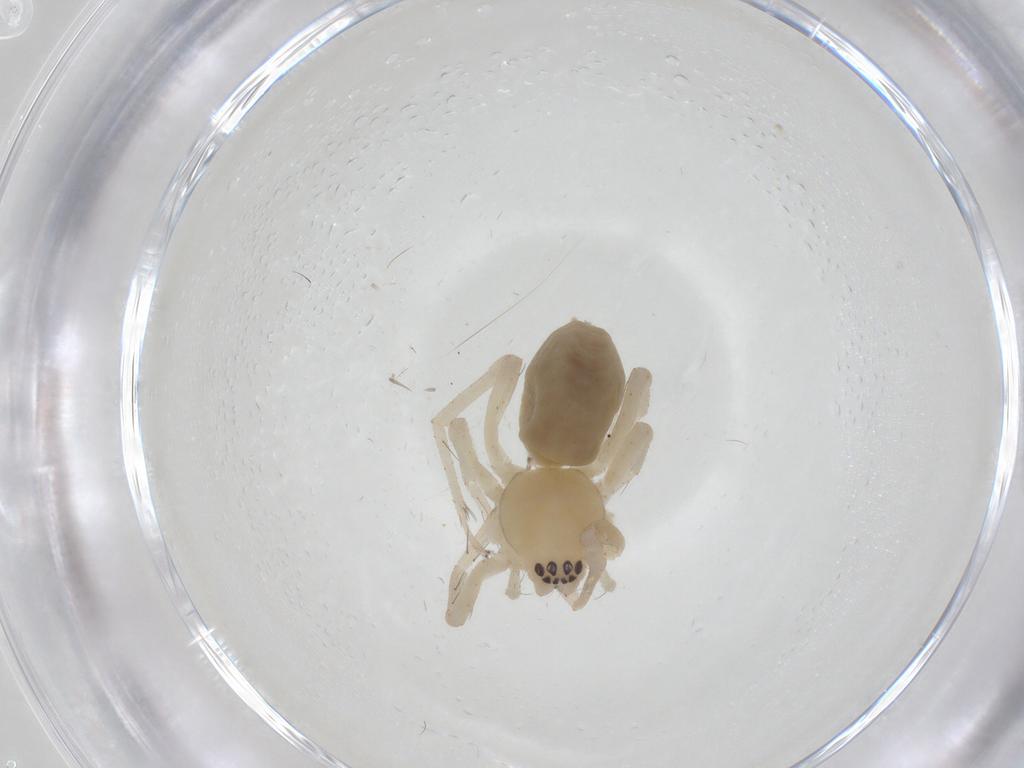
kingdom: Animalia
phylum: Arthropoda
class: Arachnida
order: Araneae
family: Anyphaenidae
